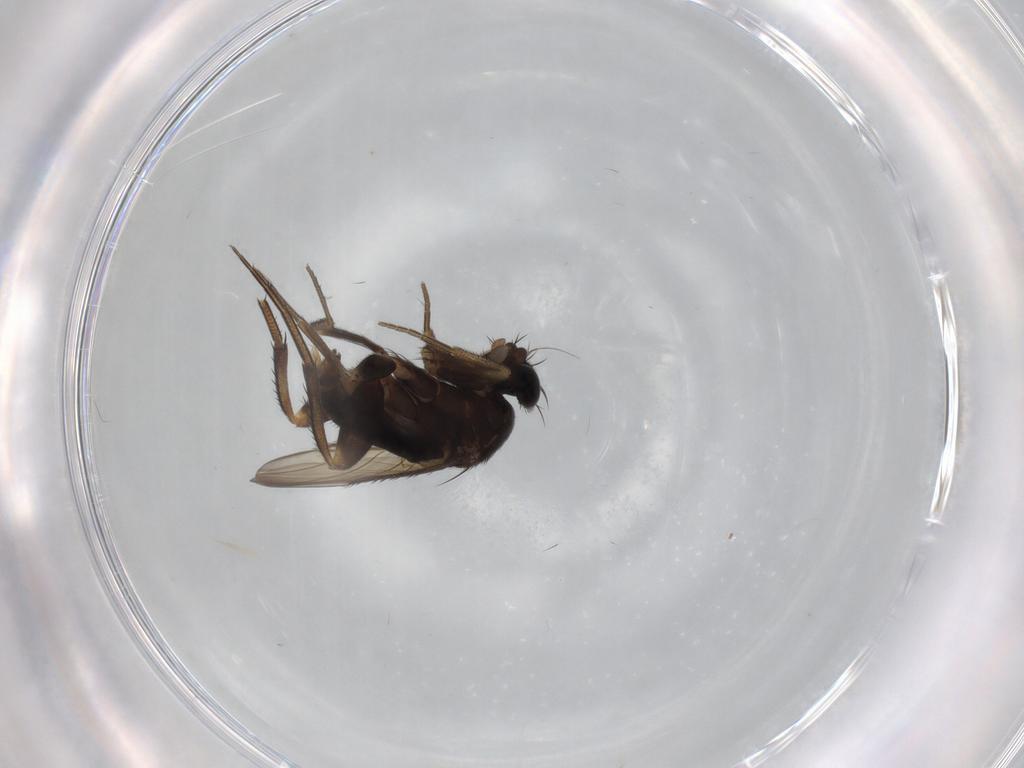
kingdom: Animalia
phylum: Arthropoda
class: Insecta
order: Diptera
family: Phoridae
